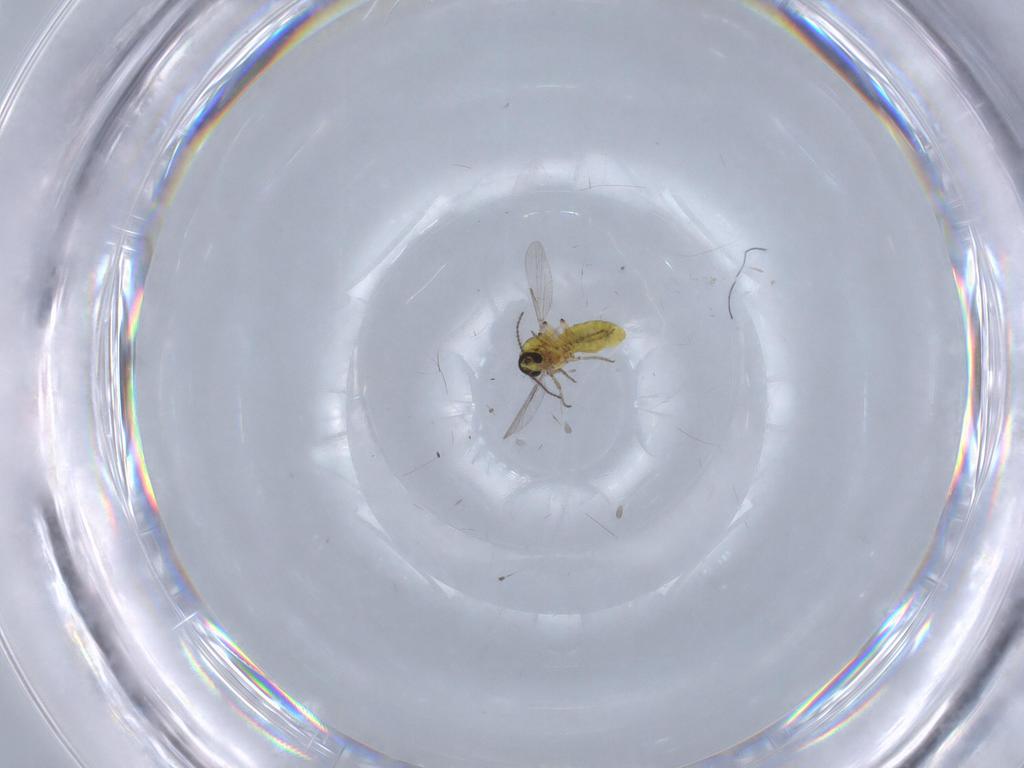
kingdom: Animalia
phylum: Arthropoda
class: Insecta
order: Diptera
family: Ceratopogonidae
